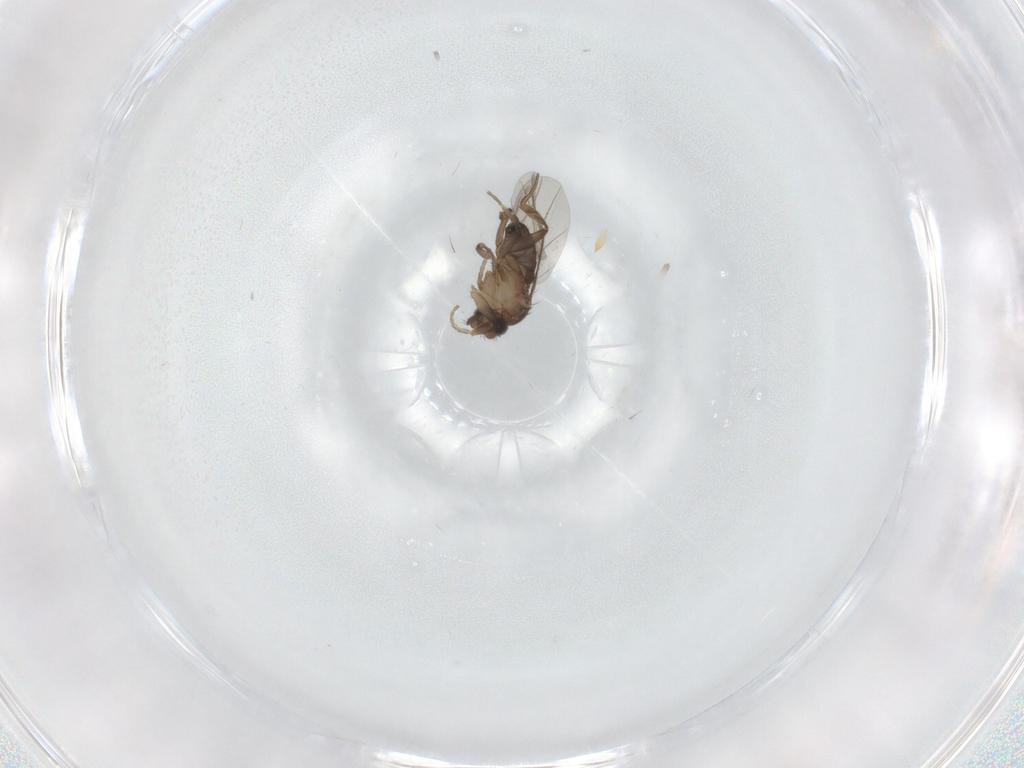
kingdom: Animalia
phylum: Arthropoda
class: Insecta
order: Diptera
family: Phoridae
